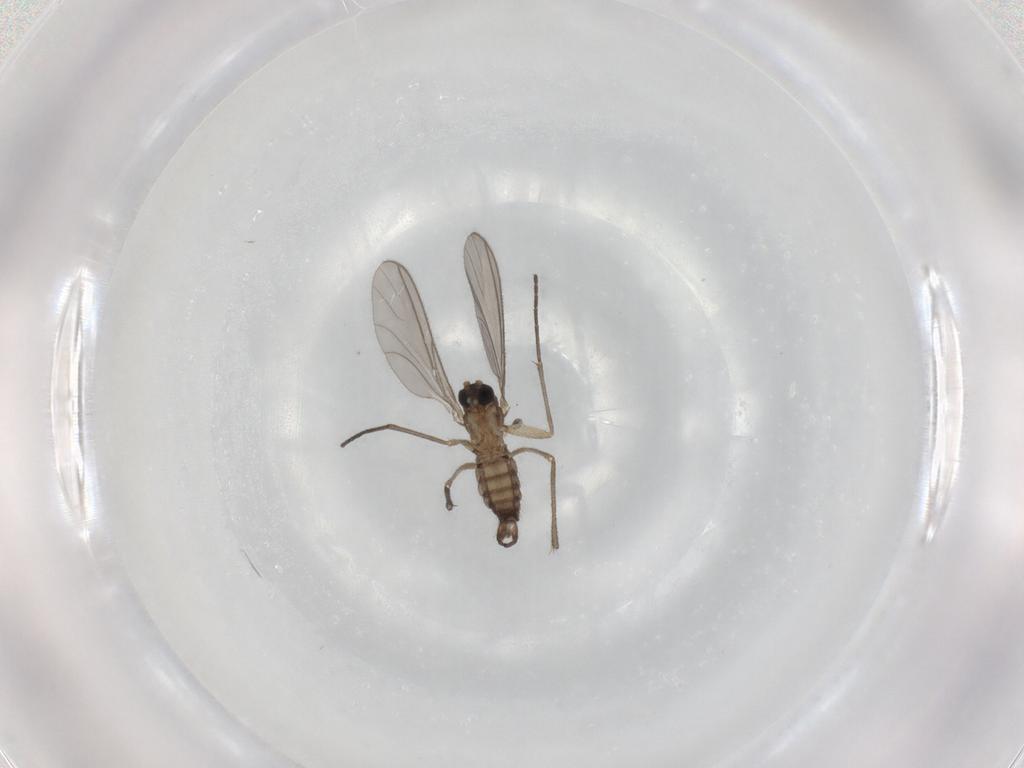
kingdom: Animalia
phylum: Arthropoda
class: Insecta
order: Diptera
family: Sciaridae
